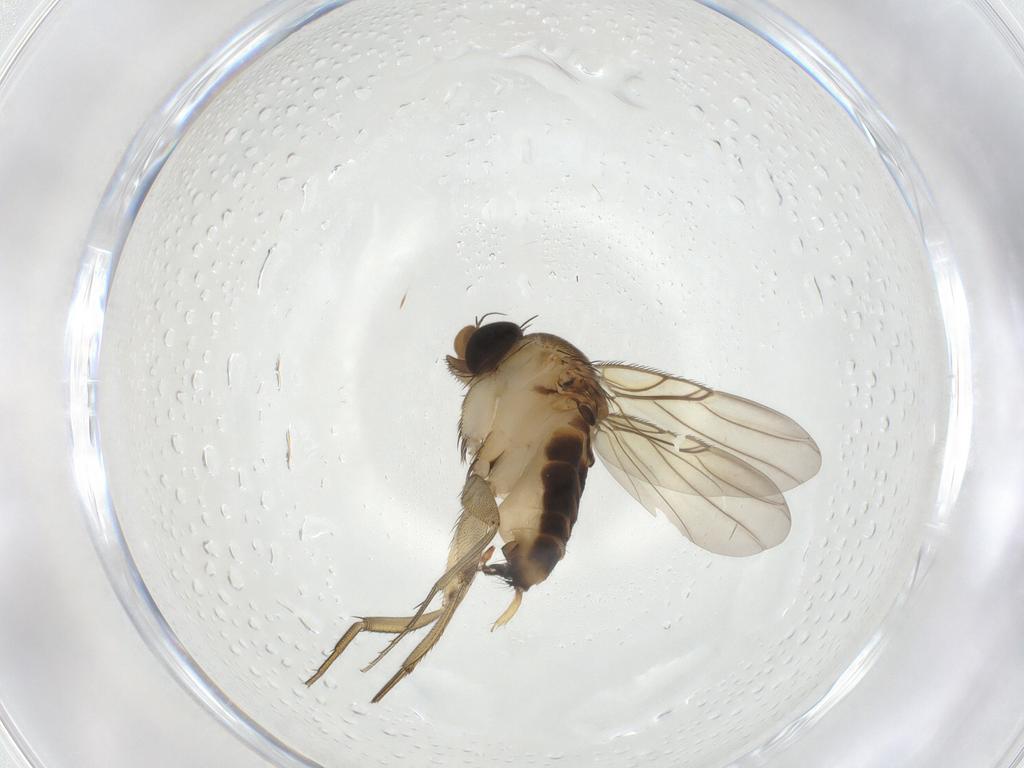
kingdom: Animalia
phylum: Arthropoda
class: Insecta
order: Diptera
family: Phoridae
